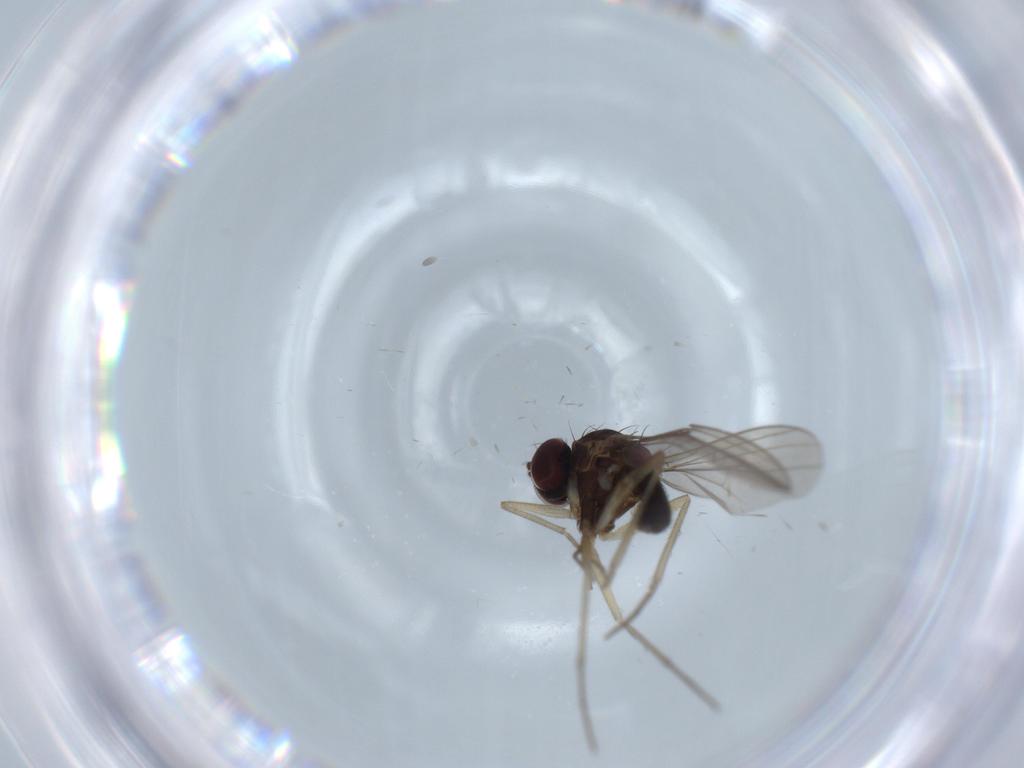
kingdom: Animalia
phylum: Arthropoda
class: Insecta
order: Diptera
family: Dolichopodidae
